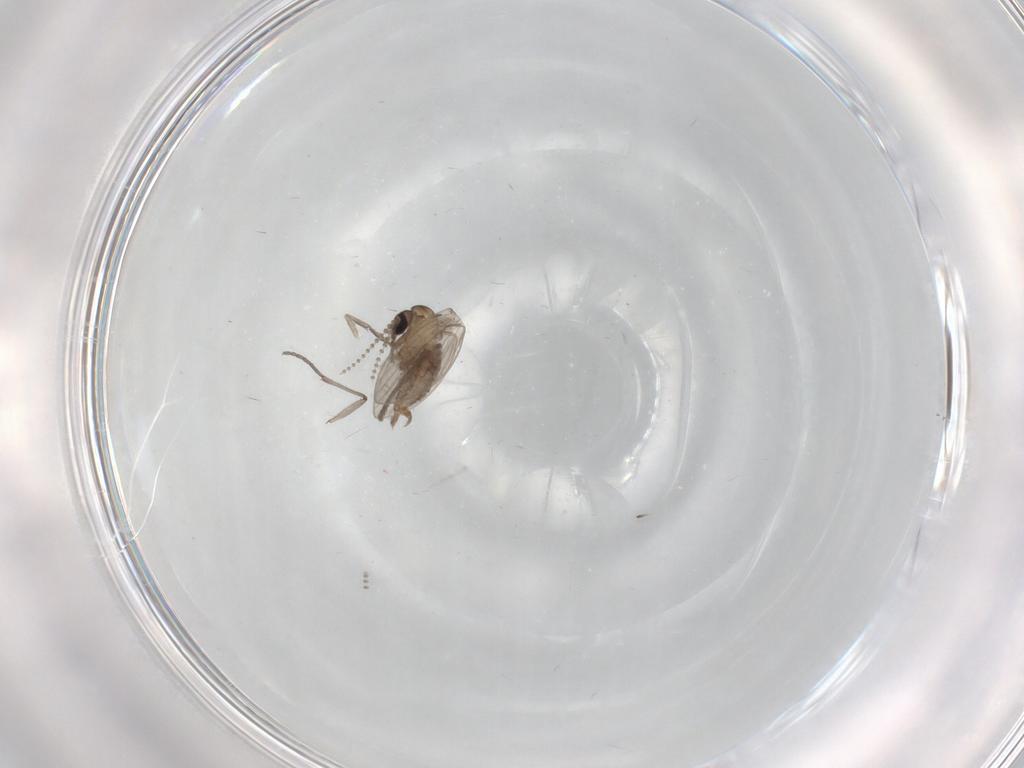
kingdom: Animalia
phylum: Arthropoda
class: Insecta
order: Diptera
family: Psychodidae
